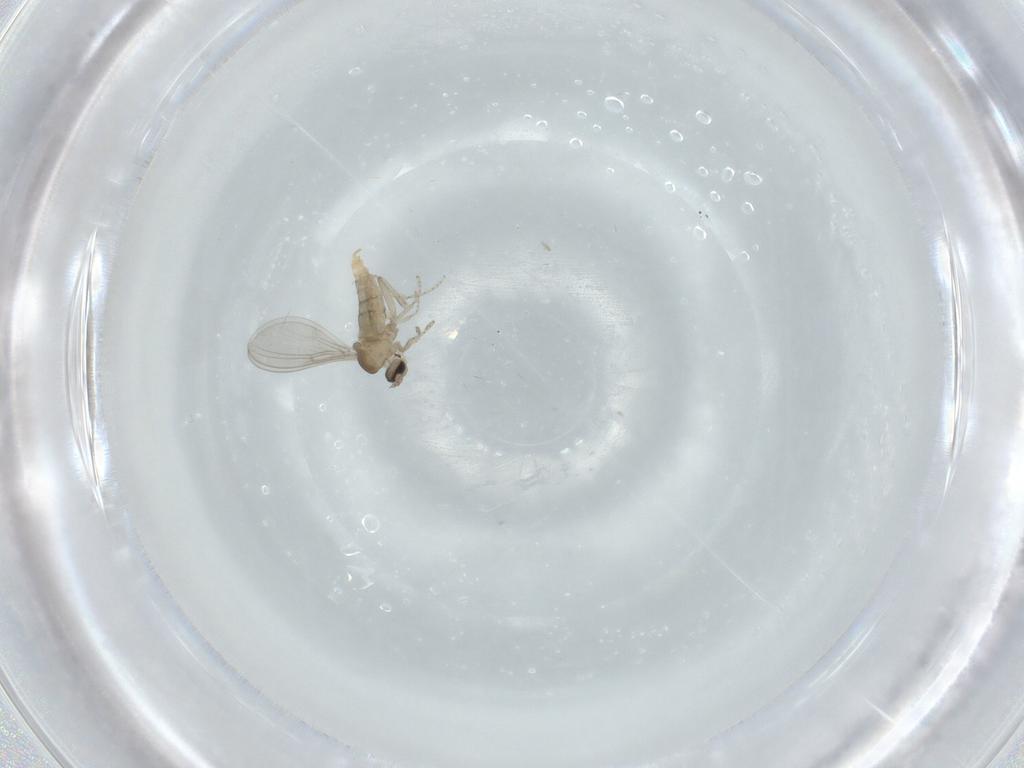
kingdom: Animalia
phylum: Arthropoda
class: Insecta
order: Diptera
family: Cecidomyiidae
